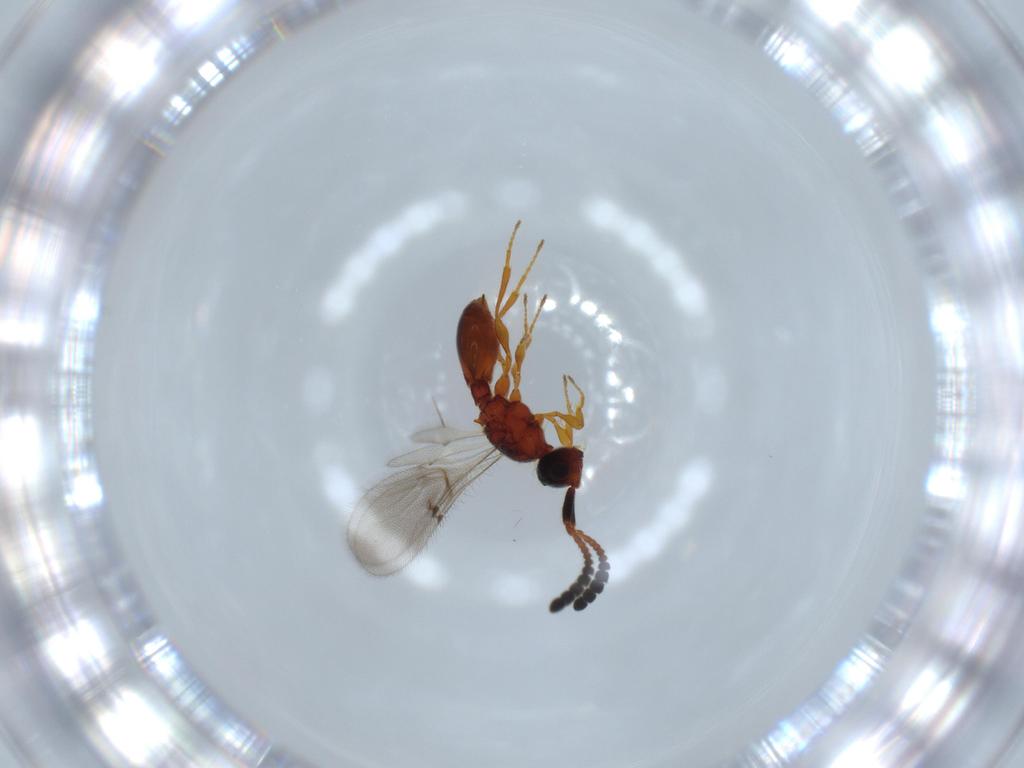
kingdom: Animalia
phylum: Arthropoda
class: Insecta
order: Hymenoptera
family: Diapriidae
